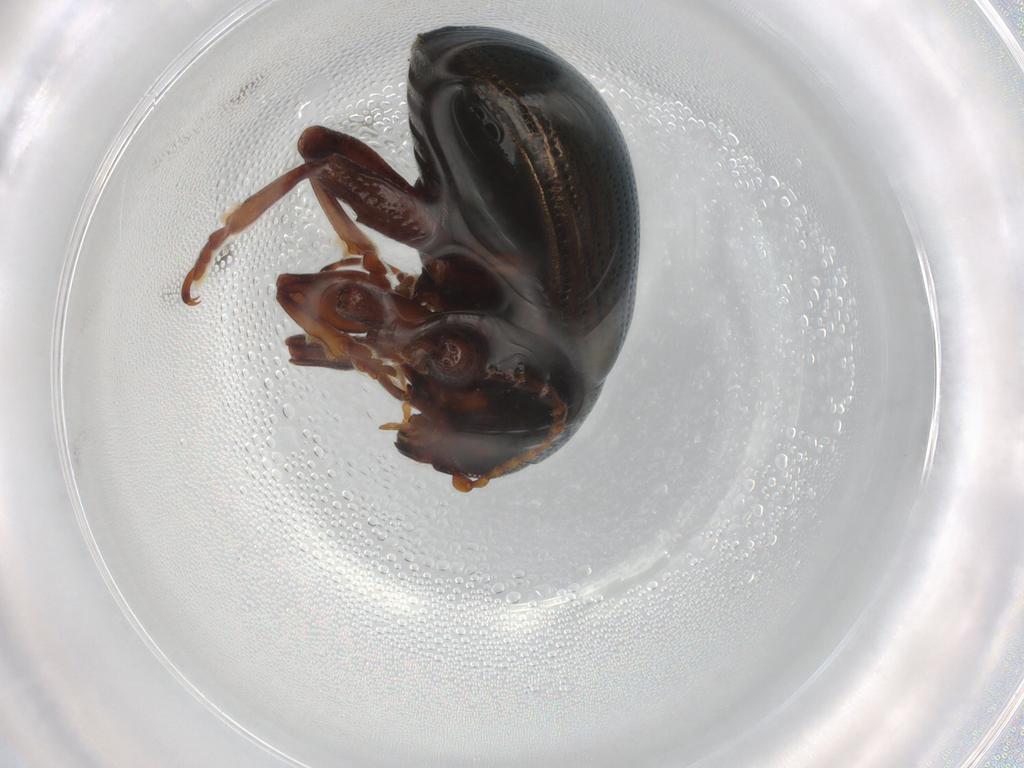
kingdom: Animalia
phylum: Arthropoda
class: Insecta
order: Coleoptera
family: Chrysomelidae
